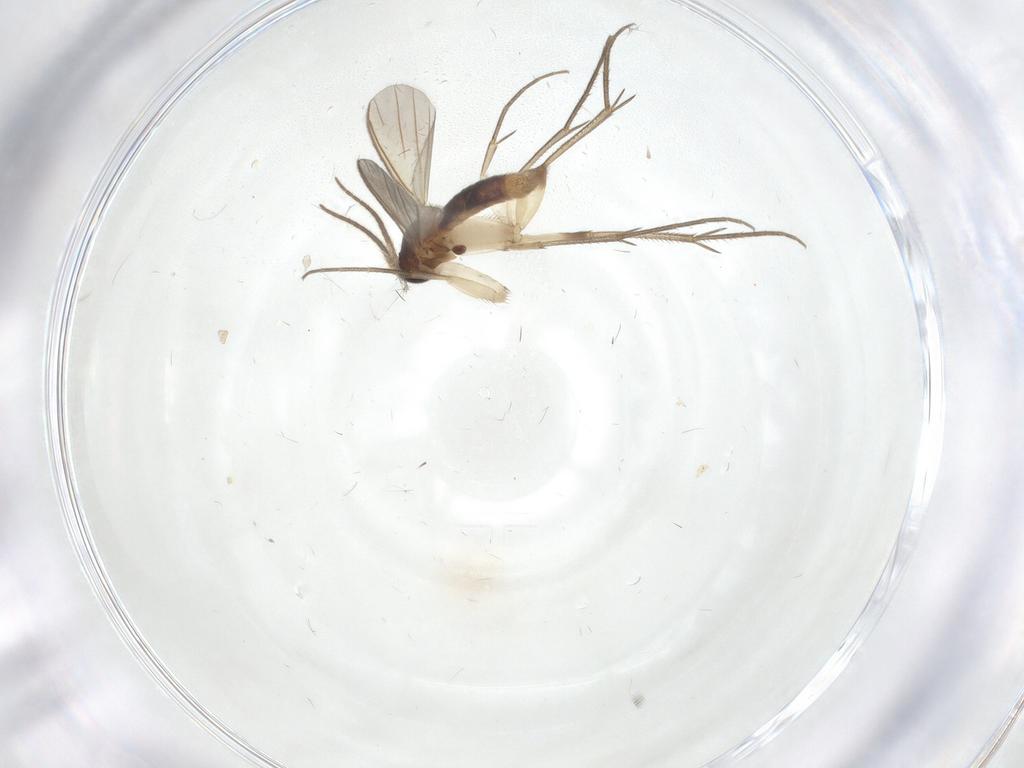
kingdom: Animalia
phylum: Arthropoda
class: Insecta
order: Diptera
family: Mycetophilidae
